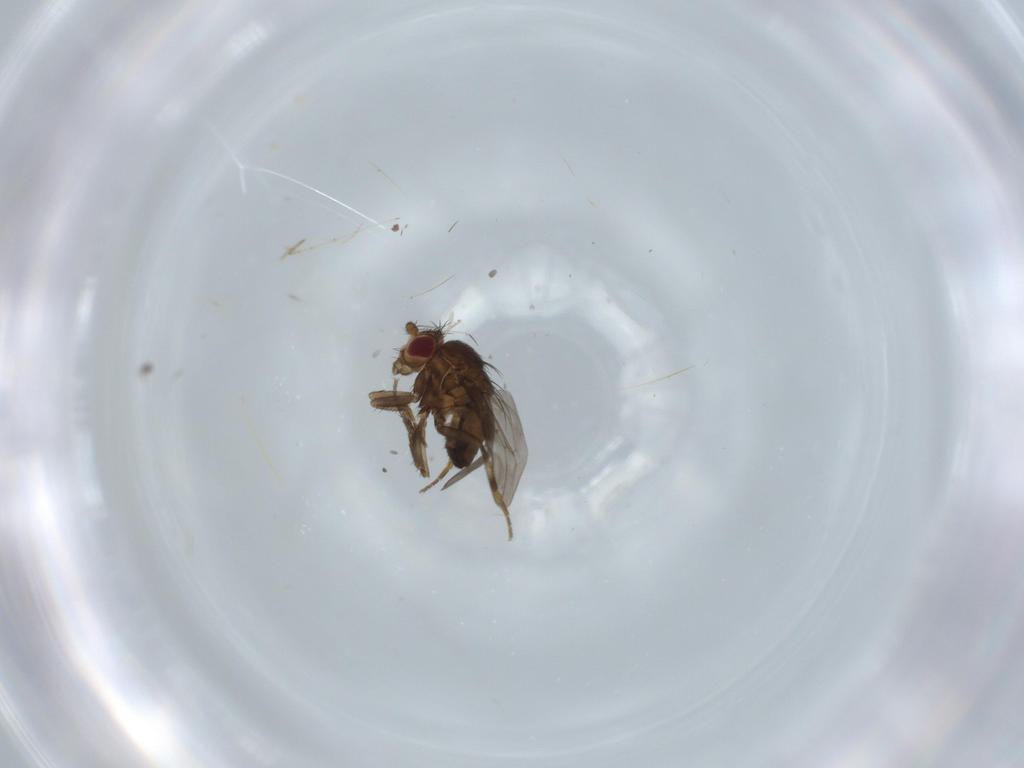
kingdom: Animalia
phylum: Arthropoda
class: Insecta
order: Diptera
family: Cecidomyiidae
